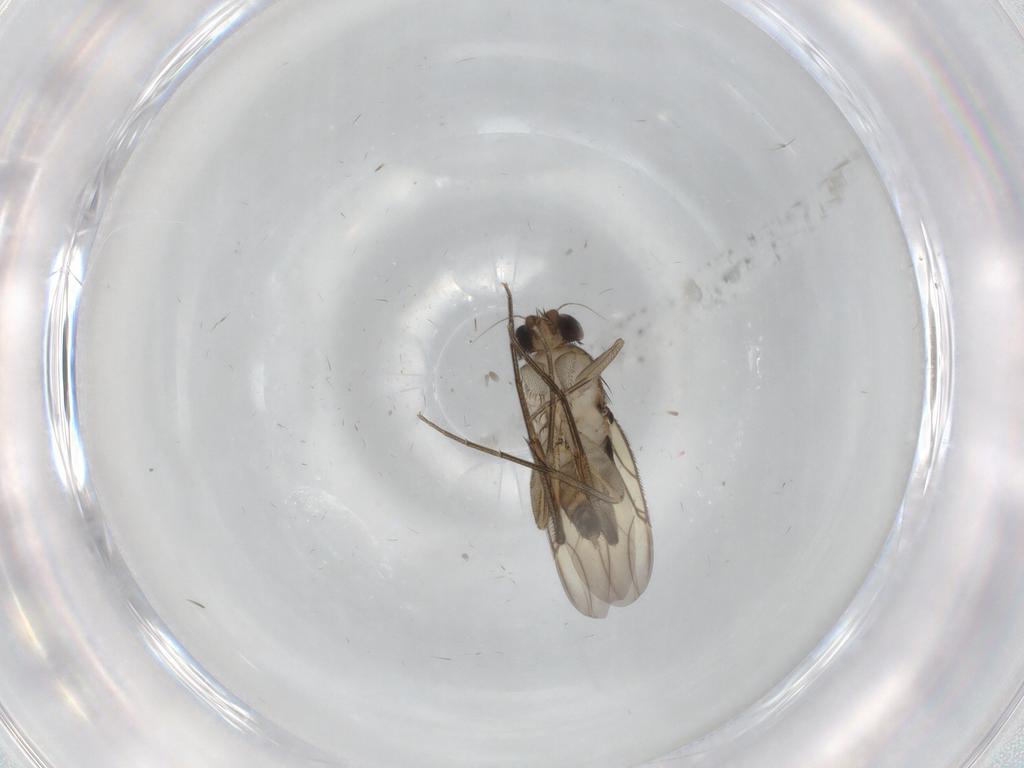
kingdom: Animalia
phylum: Arthropoda
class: Insecta
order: Diptera
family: Phoridae
